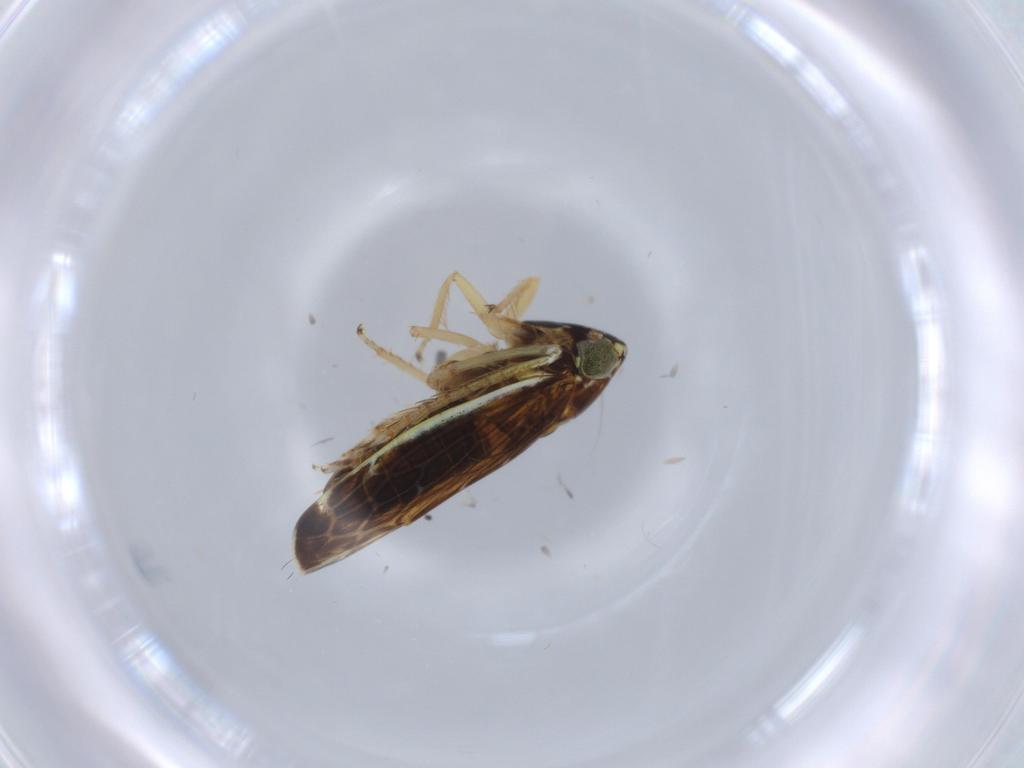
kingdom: Animalia
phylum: Arthropoda
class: Insecta
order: Hemiptera
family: Cicadellidae
